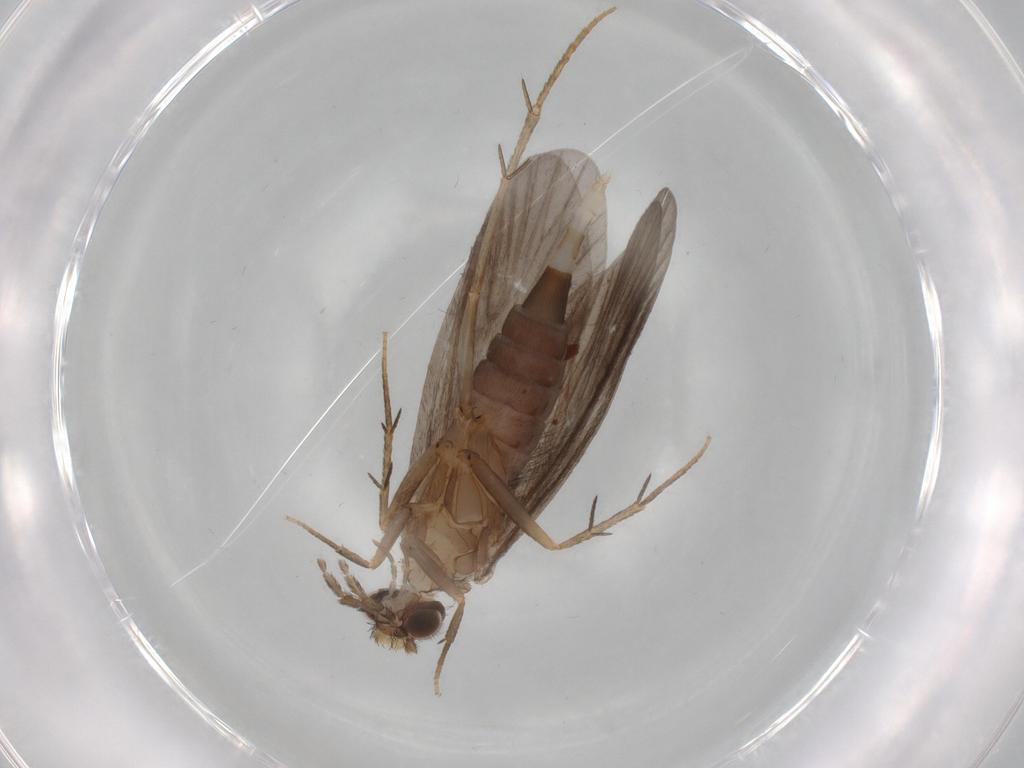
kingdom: Animalia
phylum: Arthropoda
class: Insecta
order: Trichoptera
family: Philopotamidae
